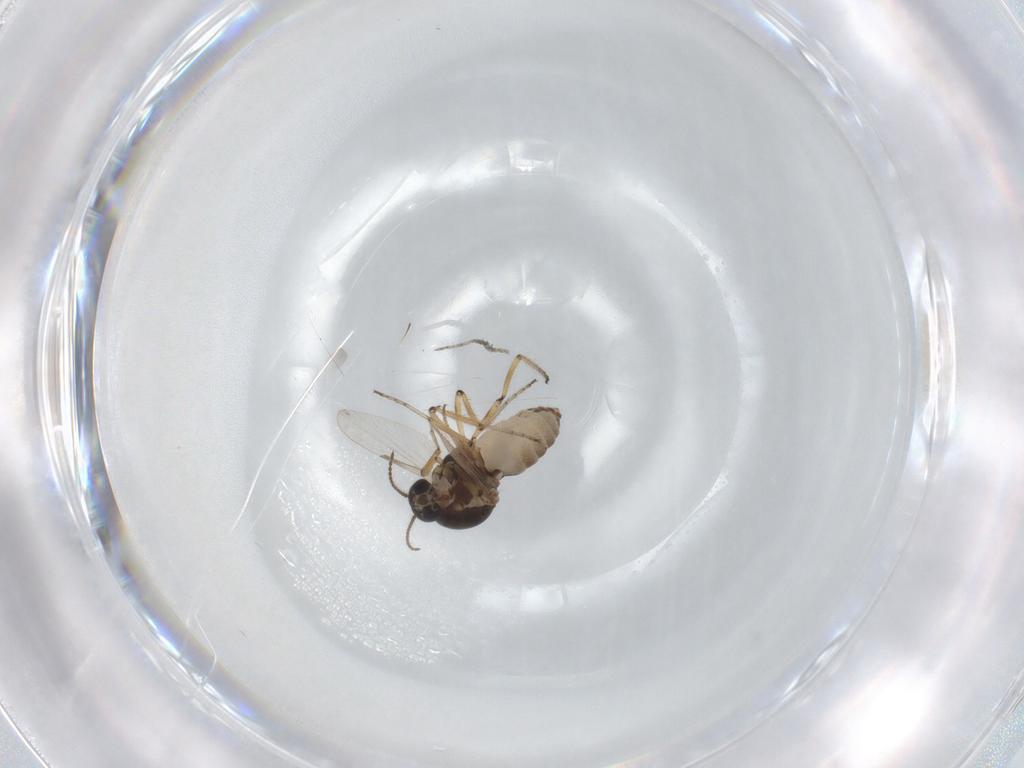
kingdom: Animalia
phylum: Arthropoda
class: Insecta
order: Diptera
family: Ceratopogonidae
